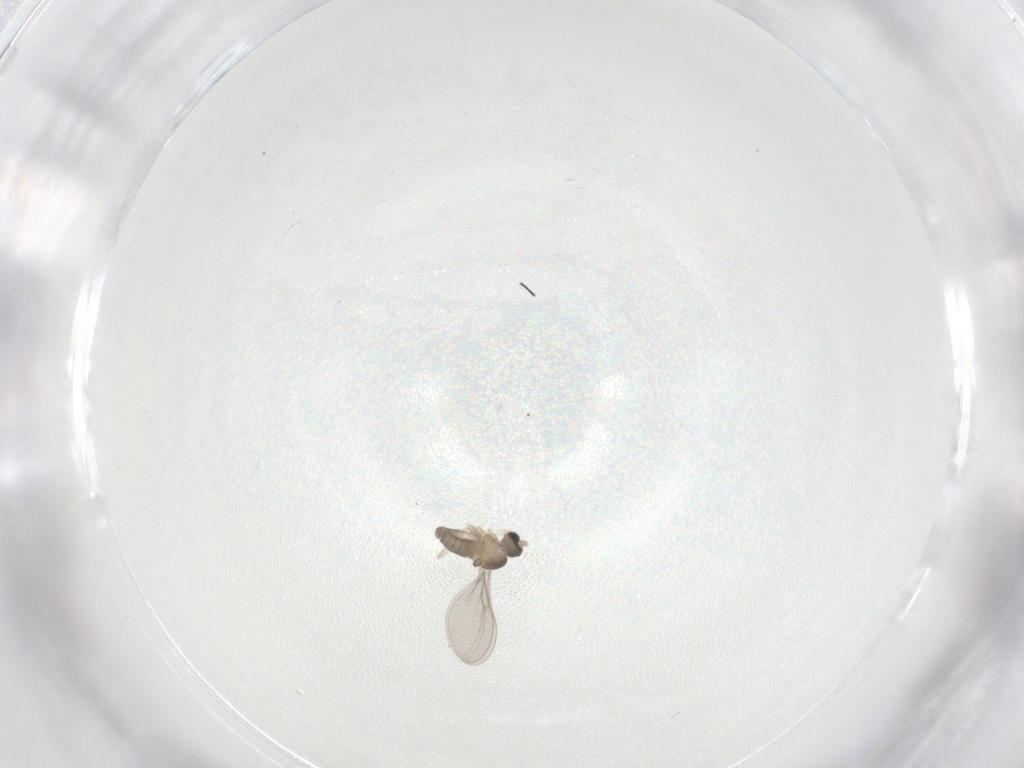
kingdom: Animalia
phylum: Arthropoda
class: Insecta
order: Diptera
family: Cecidomyiidae
